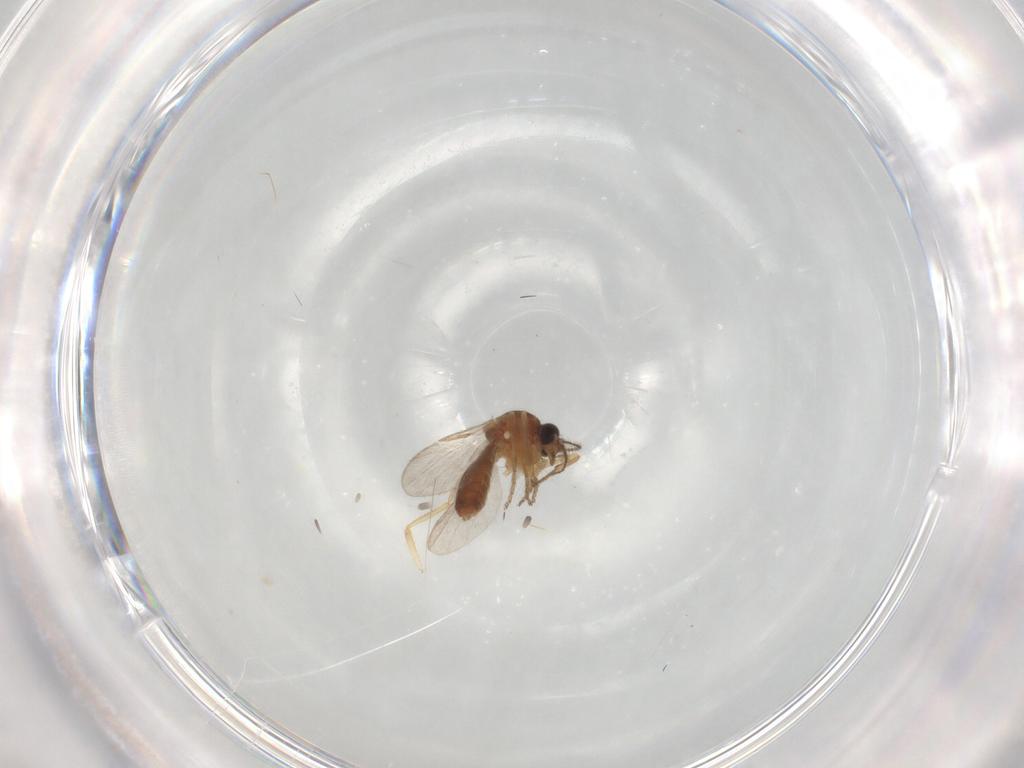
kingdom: Animalia
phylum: Arthropoda
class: Insecta
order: Diptera
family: Ceratopogonidae
